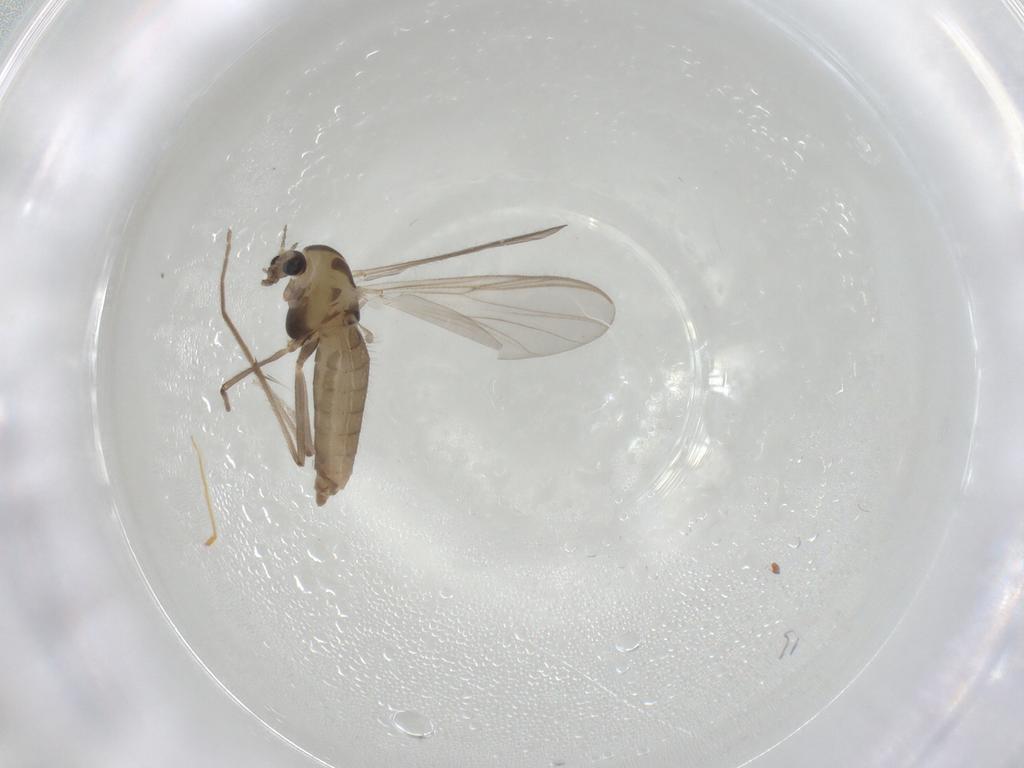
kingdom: Animalia
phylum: Arthropoda
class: Insecta
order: Diptera
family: Chironomidae
